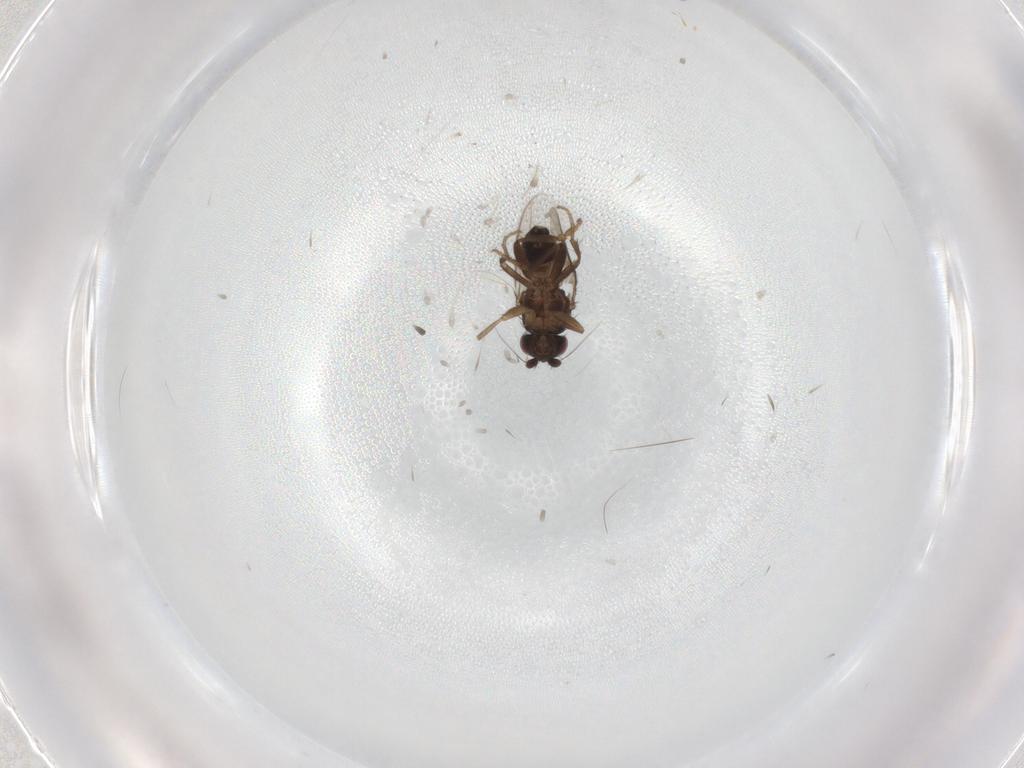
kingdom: Animalia
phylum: Arthropoda
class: Insecta
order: Diptera
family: Sphaeroceridae
